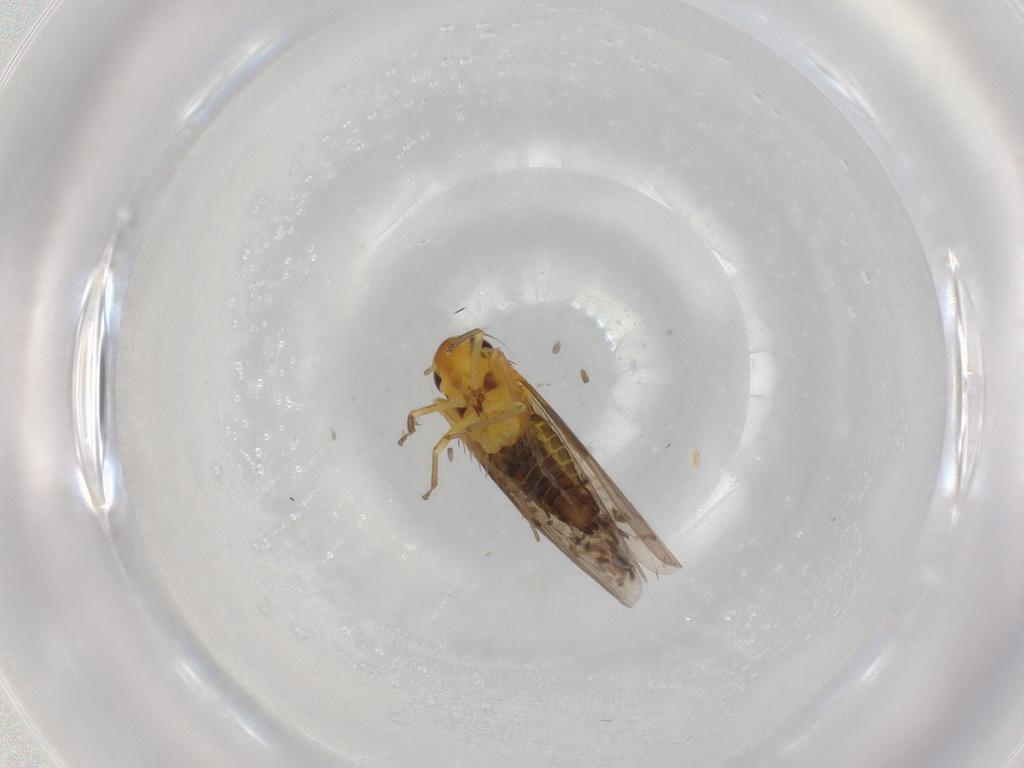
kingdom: Animalia
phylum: Arthropoda
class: Insecta
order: Hemiptera
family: Cicadellidae
